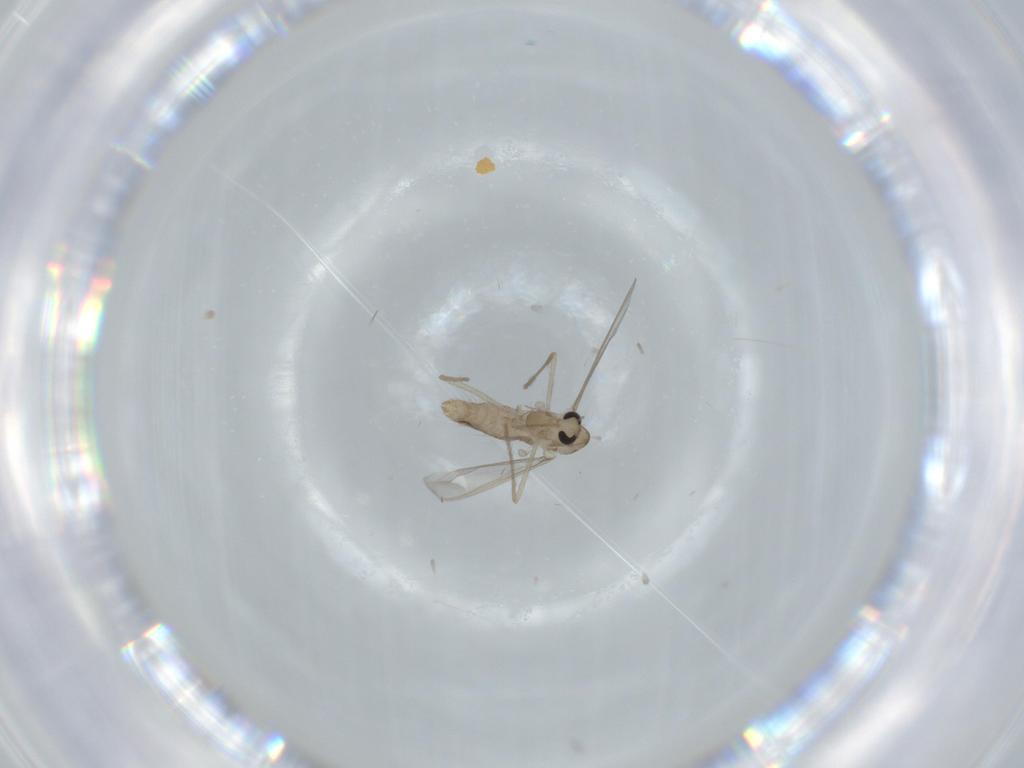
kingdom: Animalia
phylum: Arthropoda
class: Insecta
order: Diptera
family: Chironomidae
